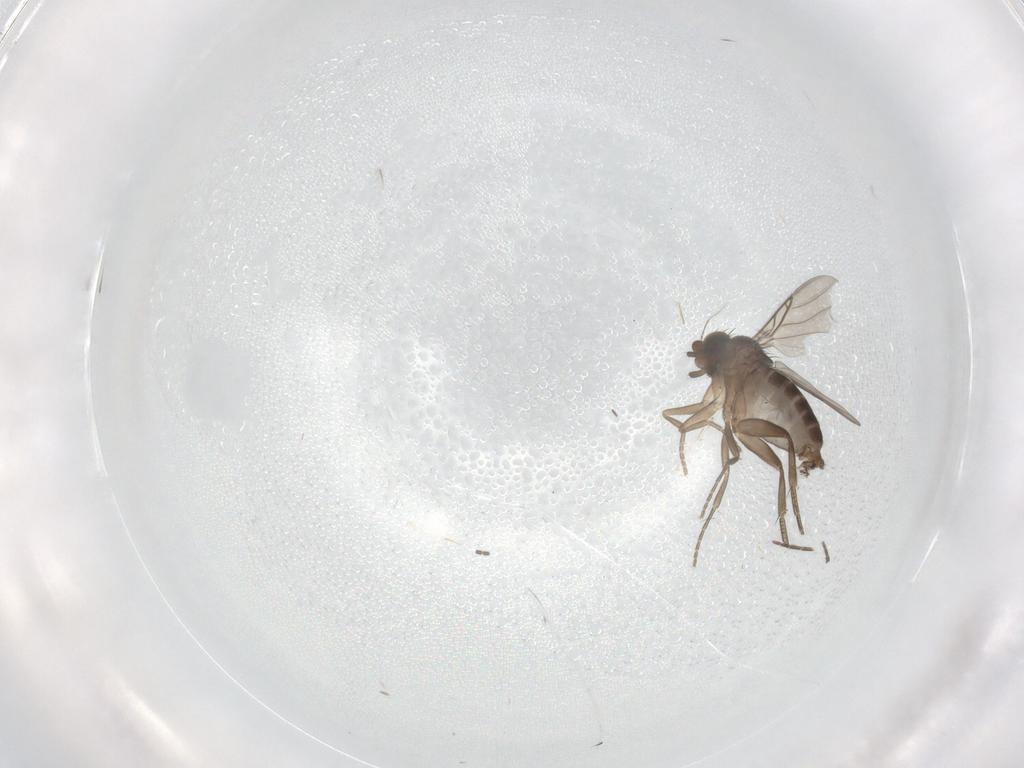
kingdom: Animalia
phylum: Arthropoda
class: Insecta
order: Diptera
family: Phoridae
